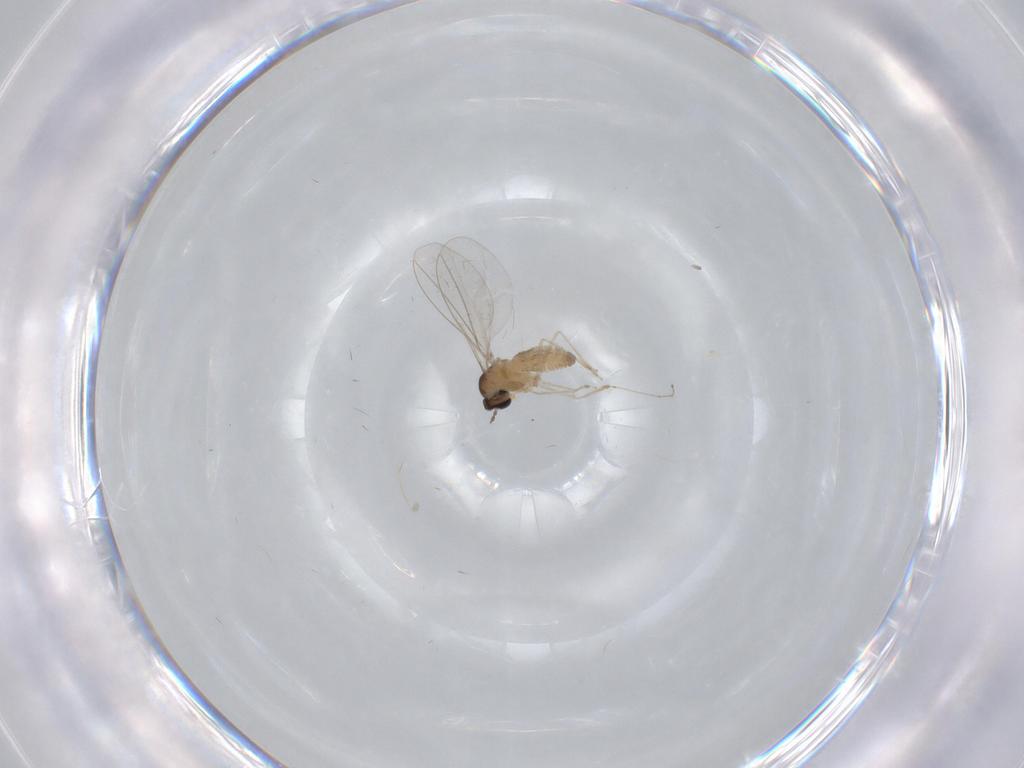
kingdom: Animalia
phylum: Arthropoda
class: Insecta
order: Diptera
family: Cecidomyiidae
